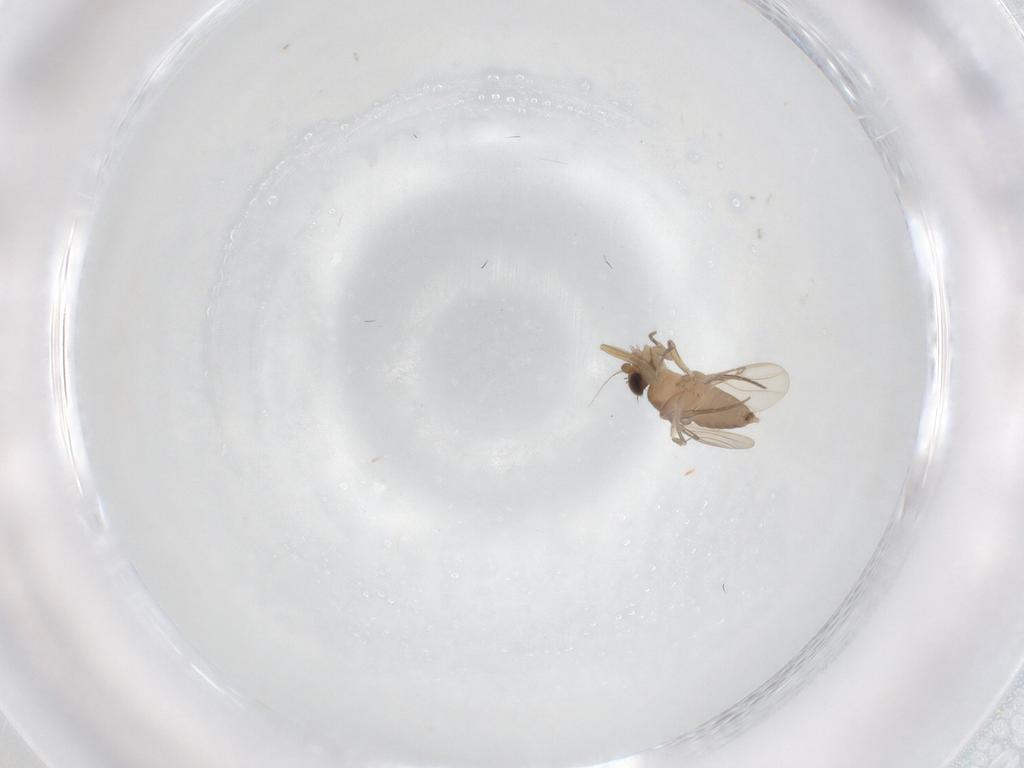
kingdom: Animalia
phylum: Arthropoda
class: Insecta
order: Diptera
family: Phoridae
